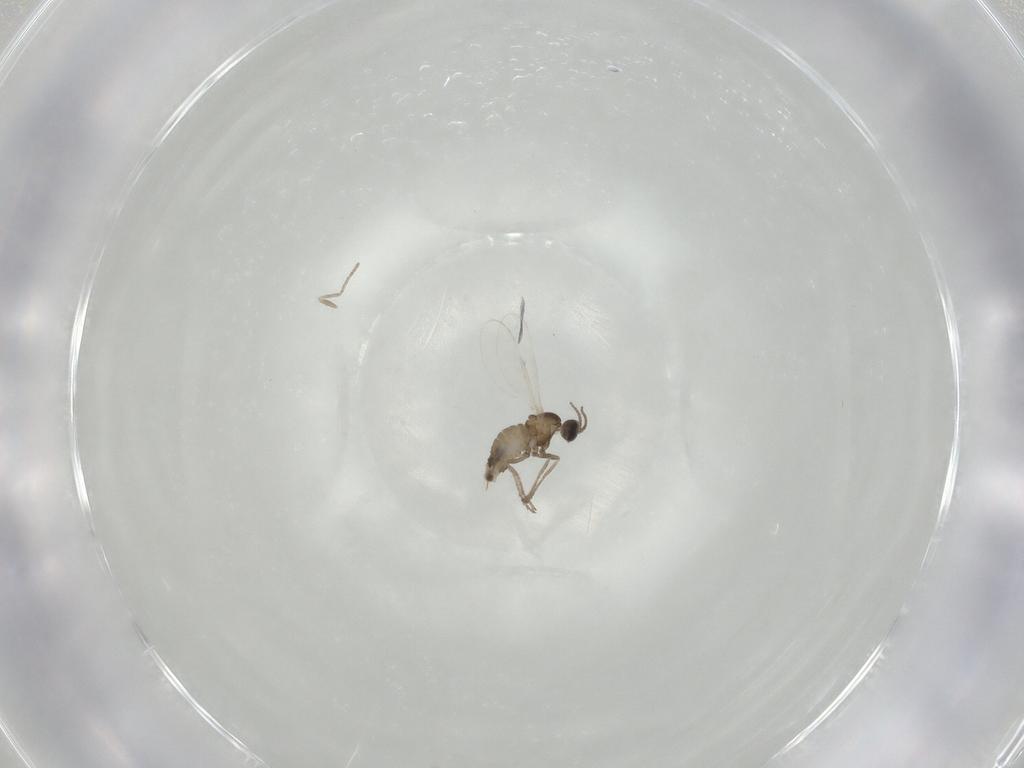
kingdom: Animalia
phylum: Arthropoda
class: Insecta
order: Diptera
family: Cecidomyiidae
